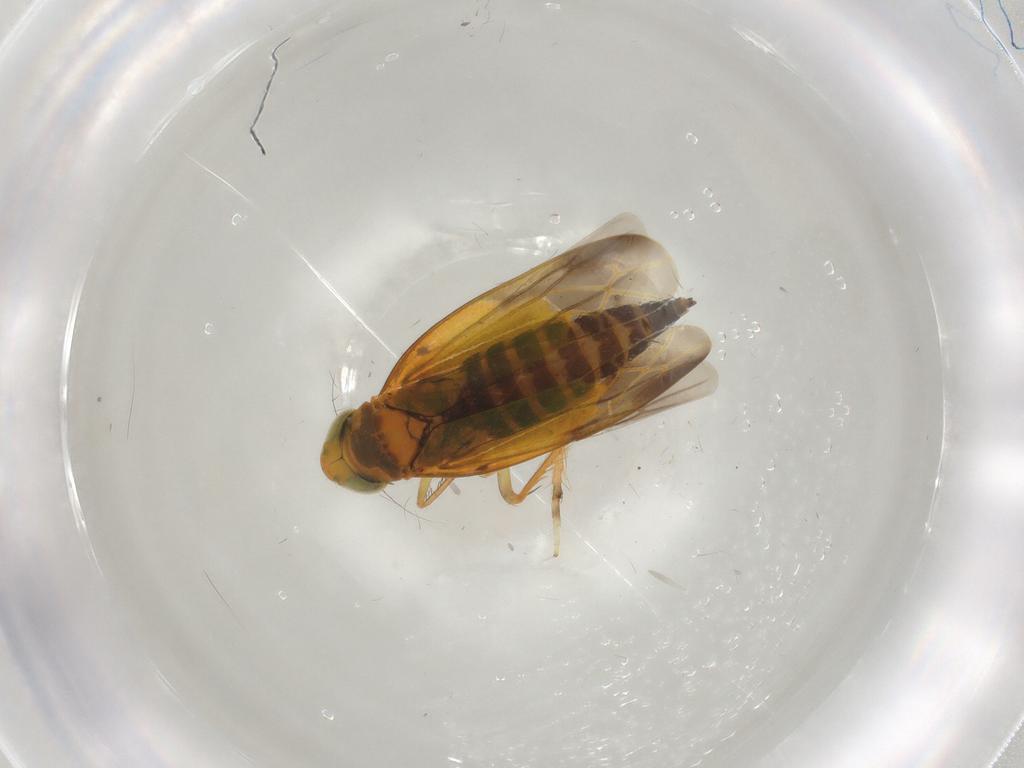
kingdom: Animalia
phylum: Arthropoda
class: Insecta
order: Hemiptera
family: Cicadellidae
